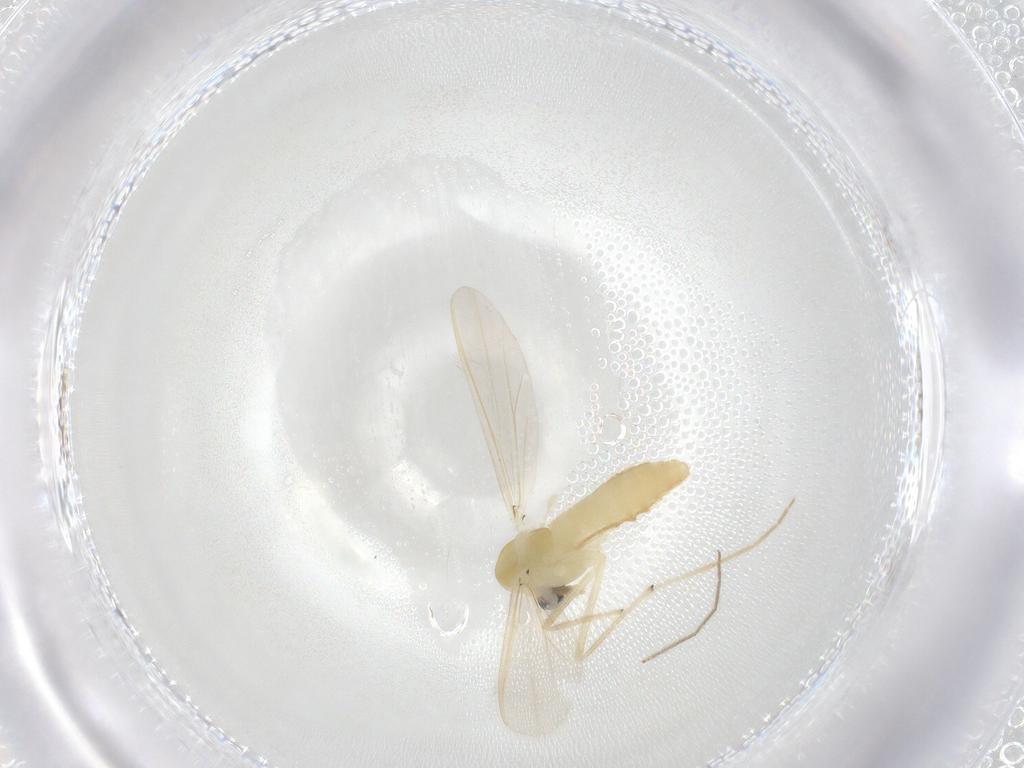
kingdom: Animalia
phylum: Arthropoda
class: Insecta
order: Diptera
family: Chironomidae
